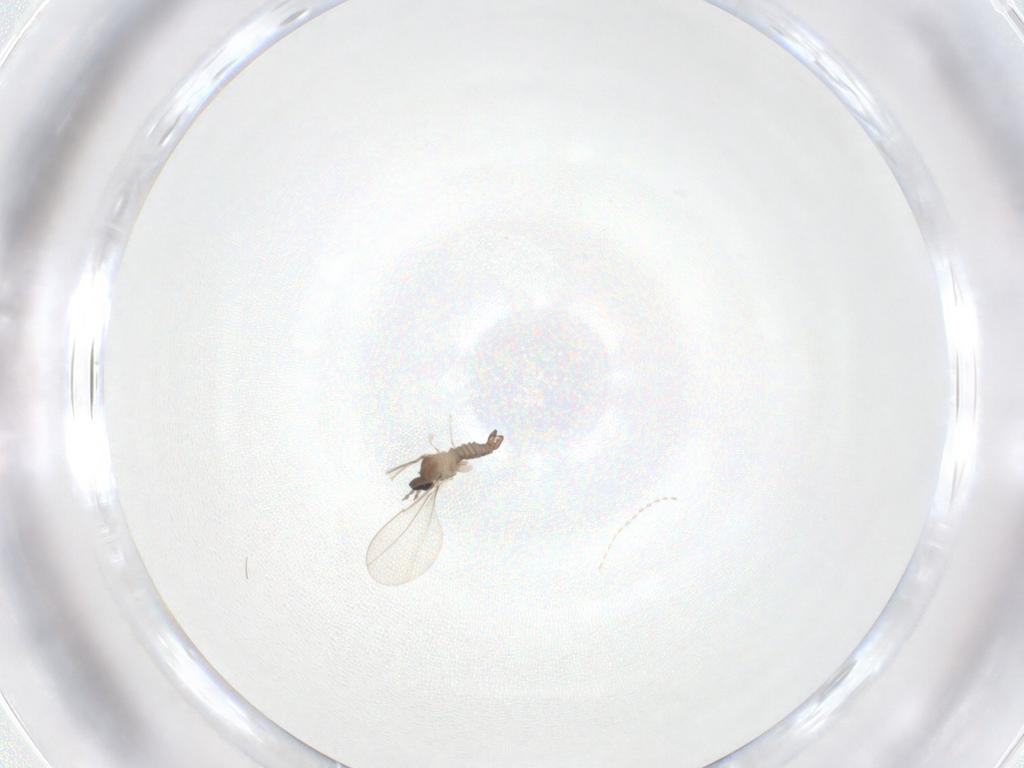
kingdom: Animalia
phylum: Arthropoda
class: Insecta
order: Diptera
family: Cecidomyiidae
